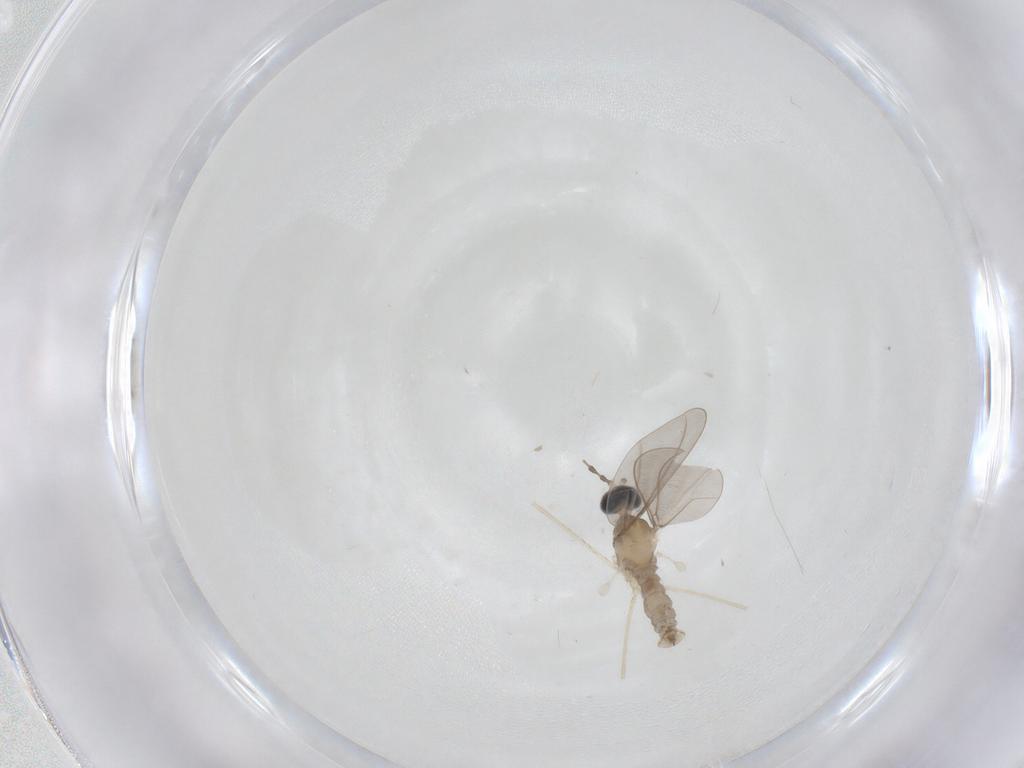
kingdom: Animalia
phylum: Arthropoda
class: Insecta
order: Diptera
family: Cecidomyiidae
